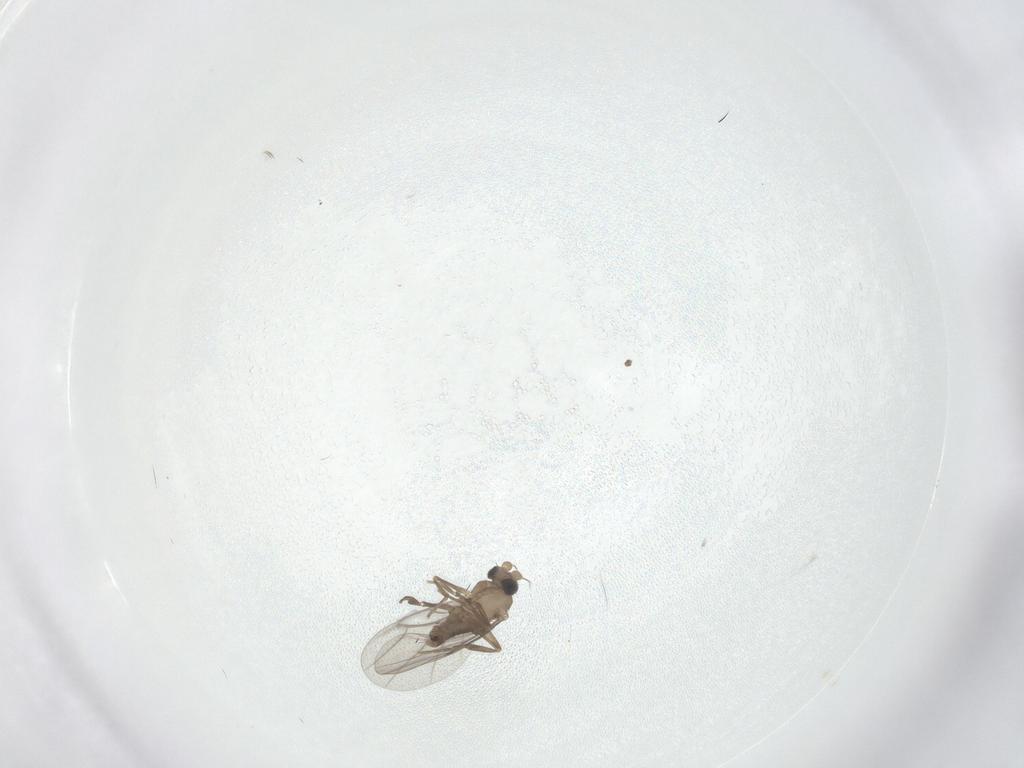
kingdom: Animalia
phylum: Arthropoda
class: Insecta
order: Diptera
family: Ceratopogonidae
